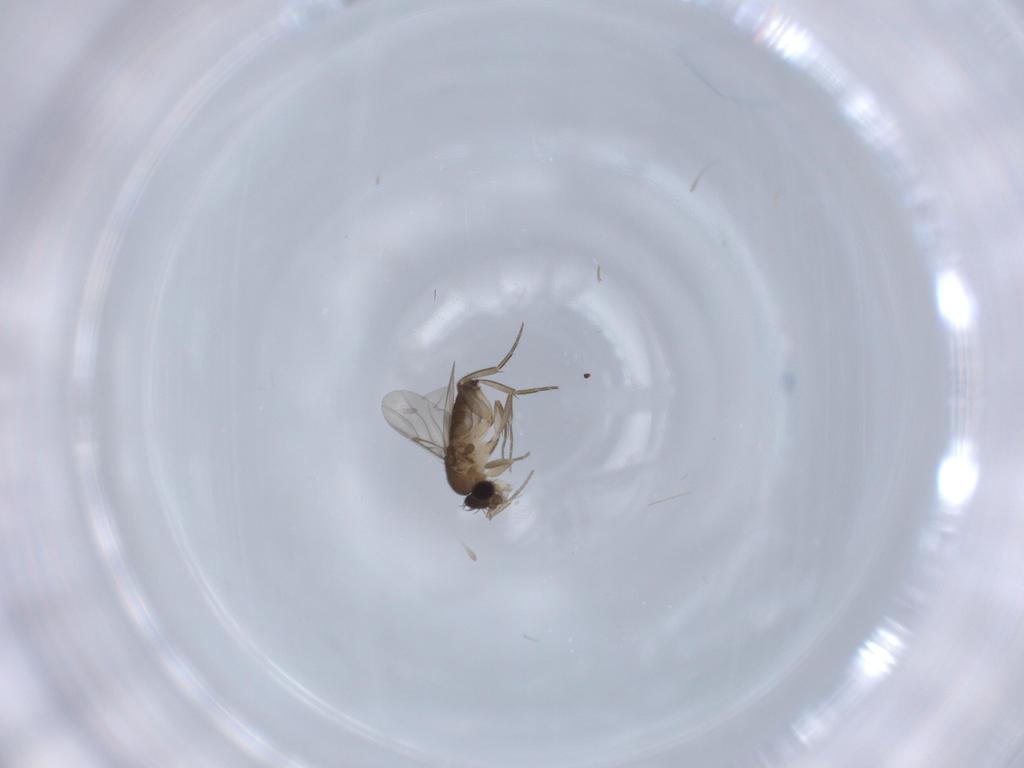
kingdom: Animalia
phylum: Arthropoda
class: Insecta
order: Diptera
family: Phoridae
